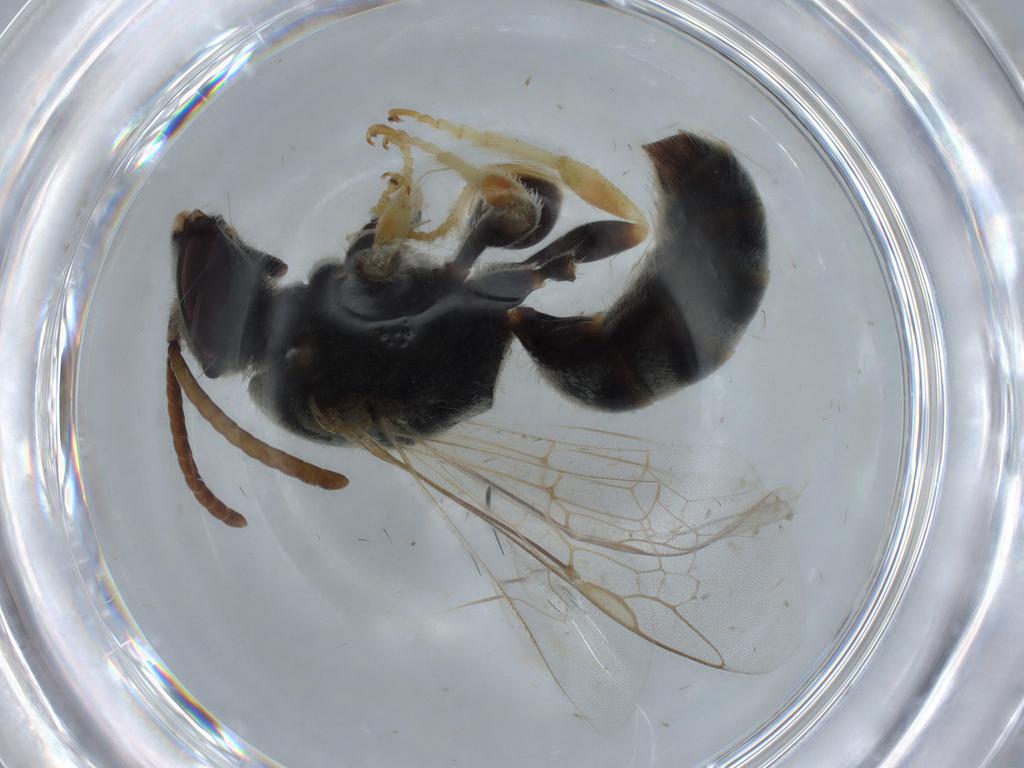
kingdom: Animalia
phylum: Arthropoda
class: Insecta
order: Hymenoptera
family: Halictidae
